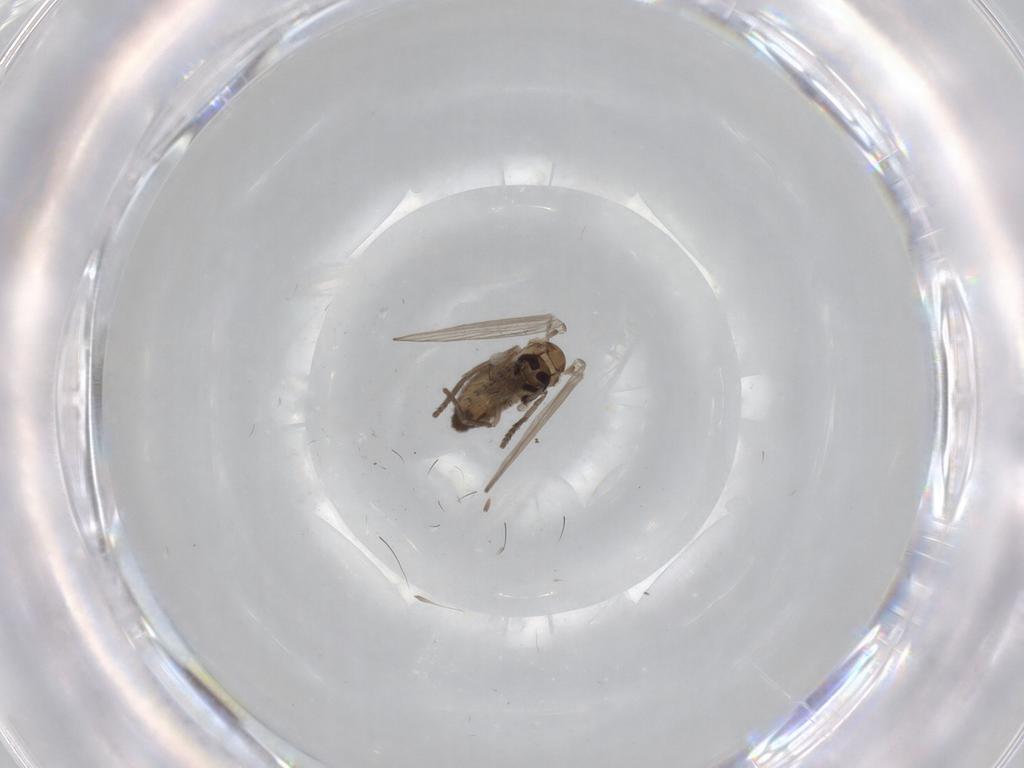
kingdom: Animalia
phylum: Arthropoda
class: Insecta
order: Diptera
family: Psychodidae
